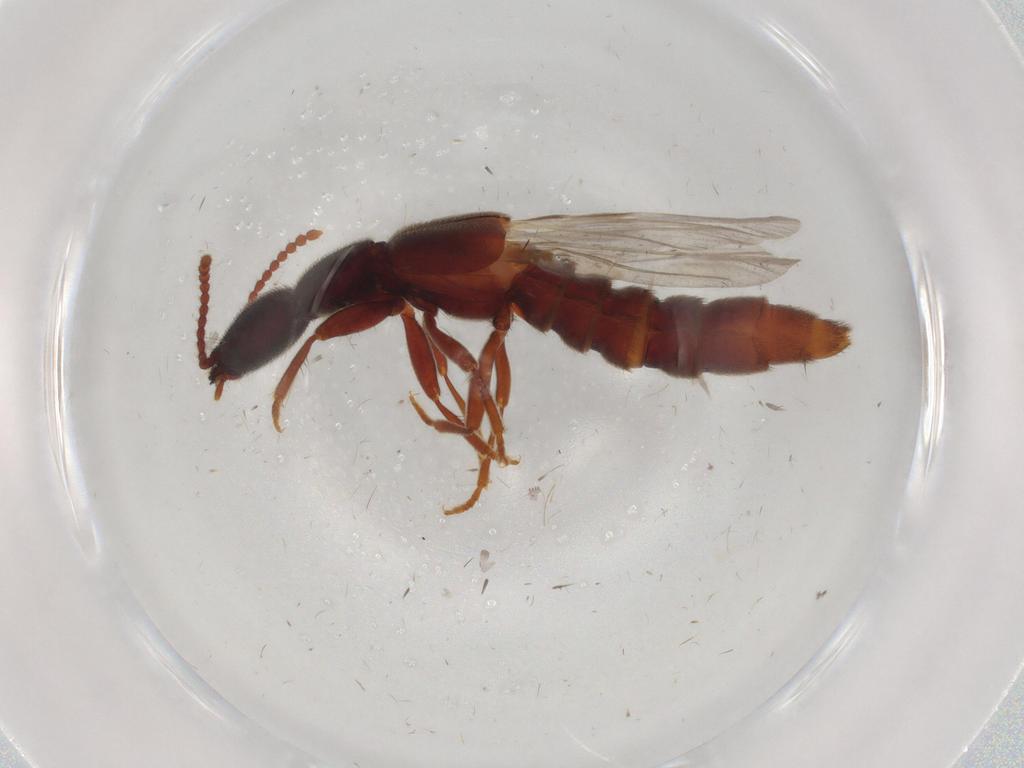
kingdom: Animalia
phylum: Arthropoda
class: Insecta
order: Coleoptera
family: Staphylinidae
